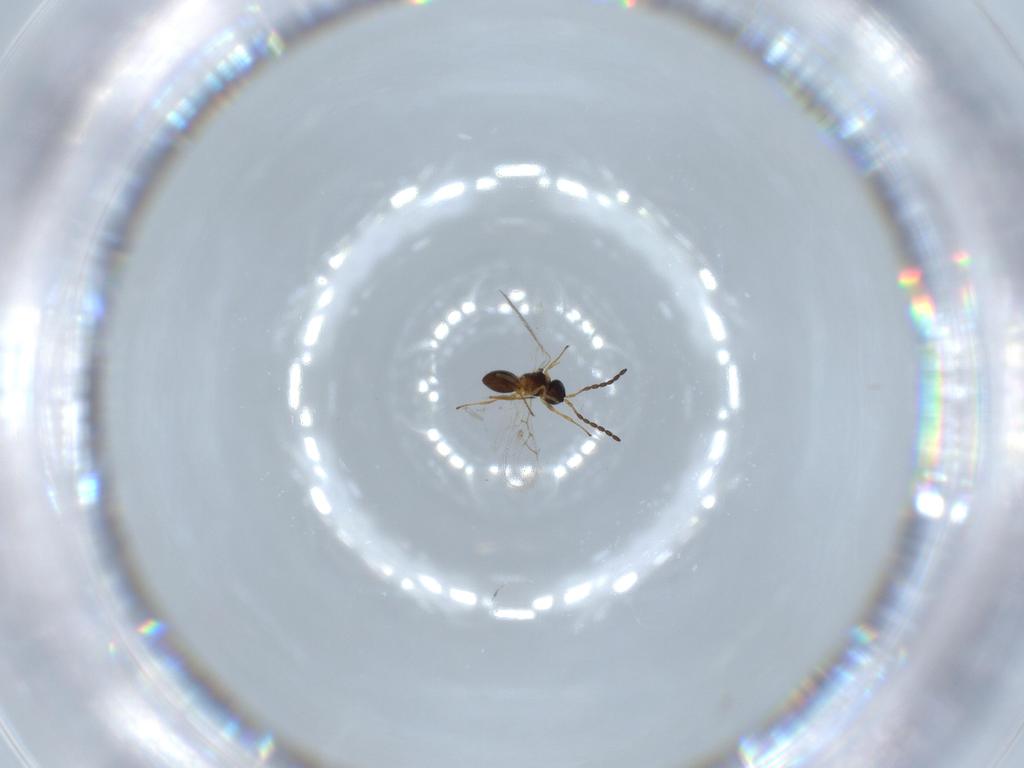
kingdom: Animalia
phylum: Arthropoda
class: Insecta
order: Hymenoptera
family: Figitidae
